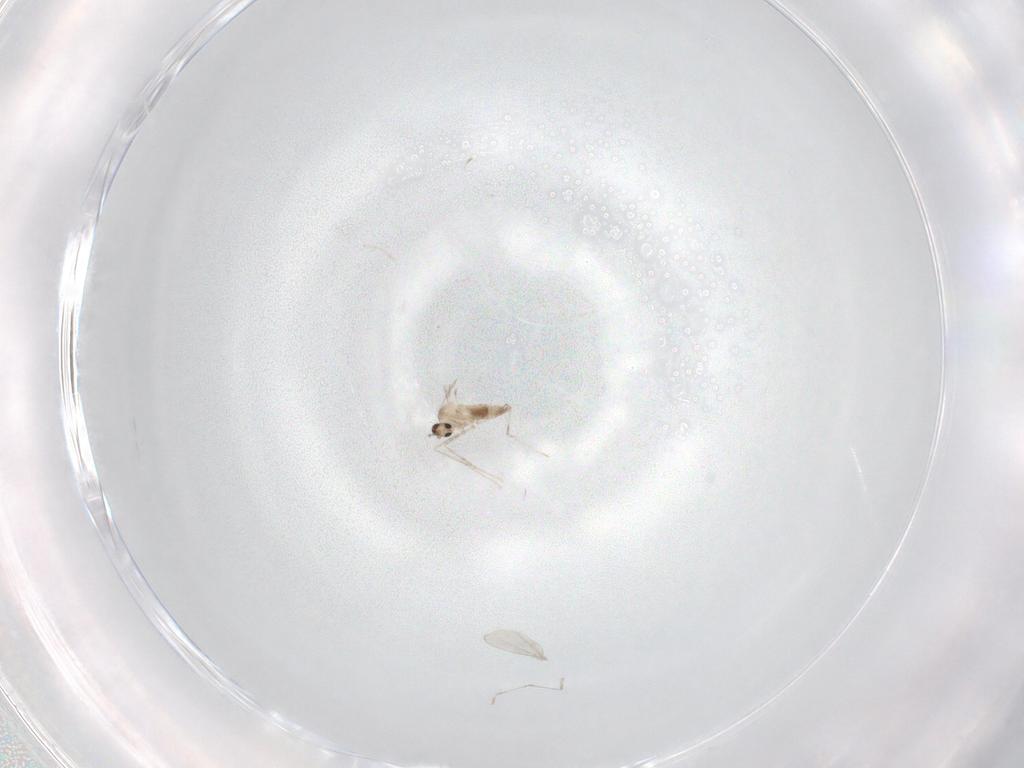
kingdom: Animalia
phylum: Arthropoda
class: Insecta
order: Diptera
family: Cecidomyiidae
